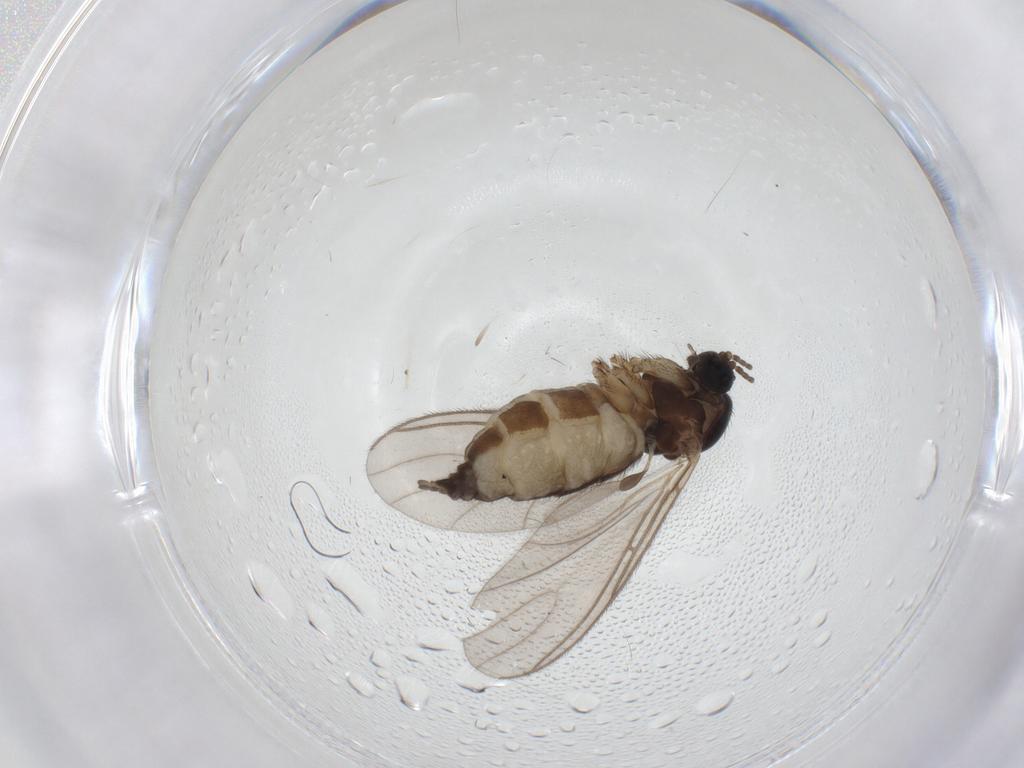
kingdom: Animalia
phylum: Arthropoda
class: Insecta
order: Diptera
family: Sciaridae
